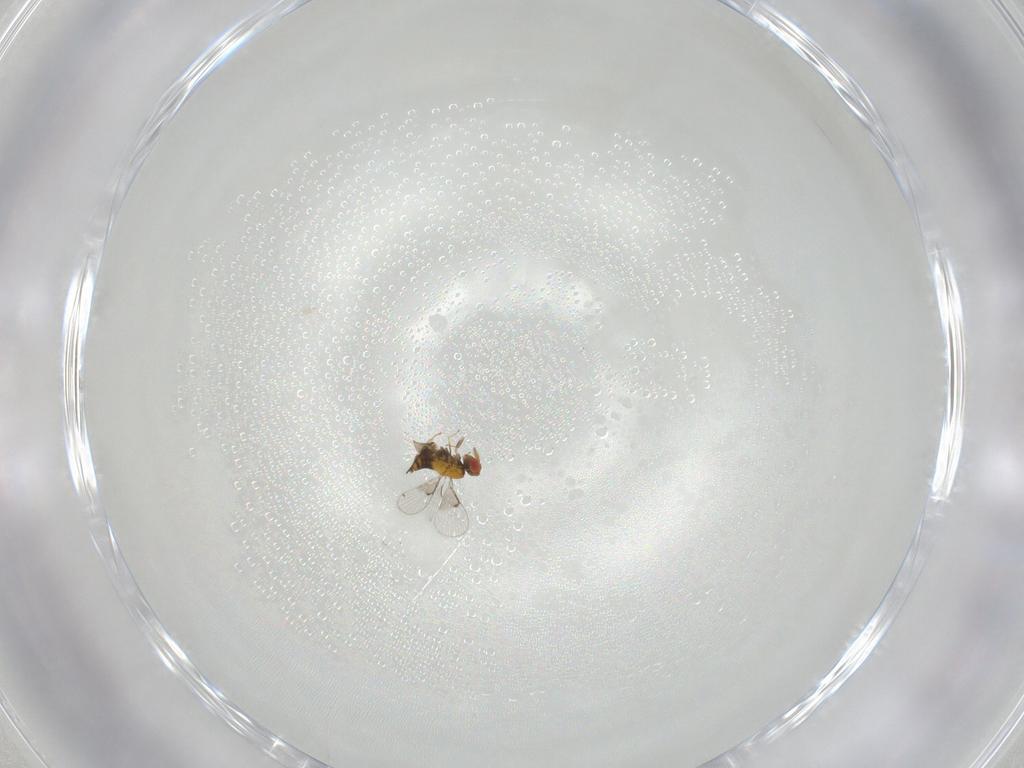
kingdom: Animalia
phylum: Arthropoda
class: Insecta
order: Hymenoptera
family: Trichogrammatidae
